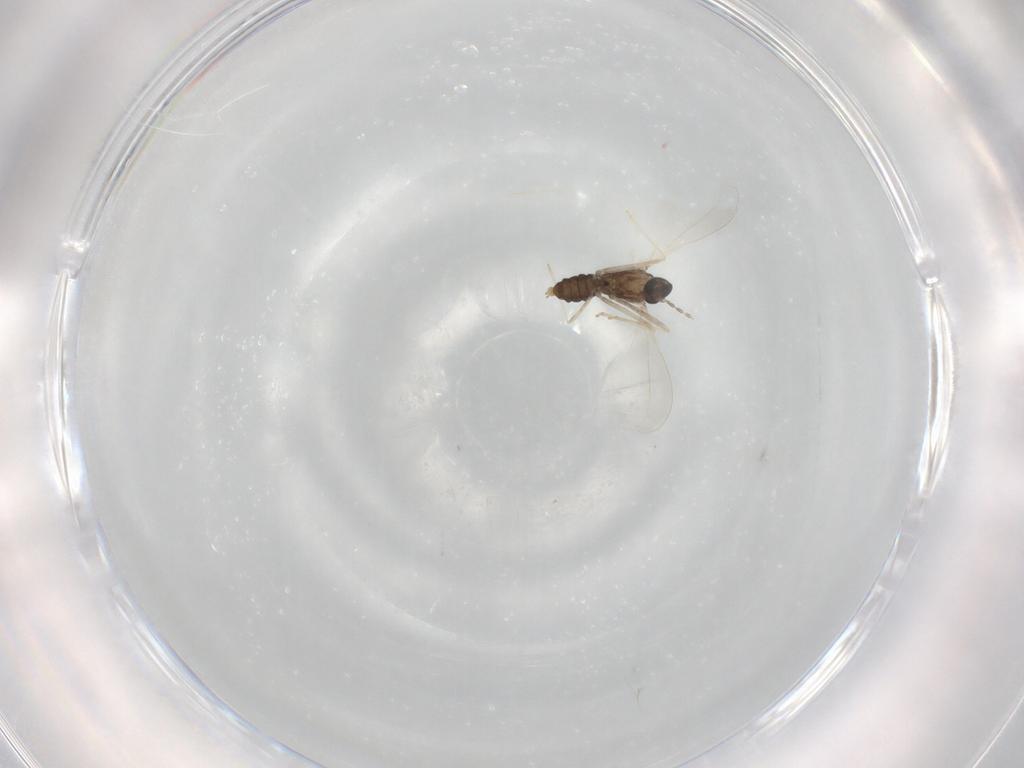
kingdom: Animalia
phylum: Arthropoda
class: Insecta
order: Diptera
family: Cecidomyiidae
